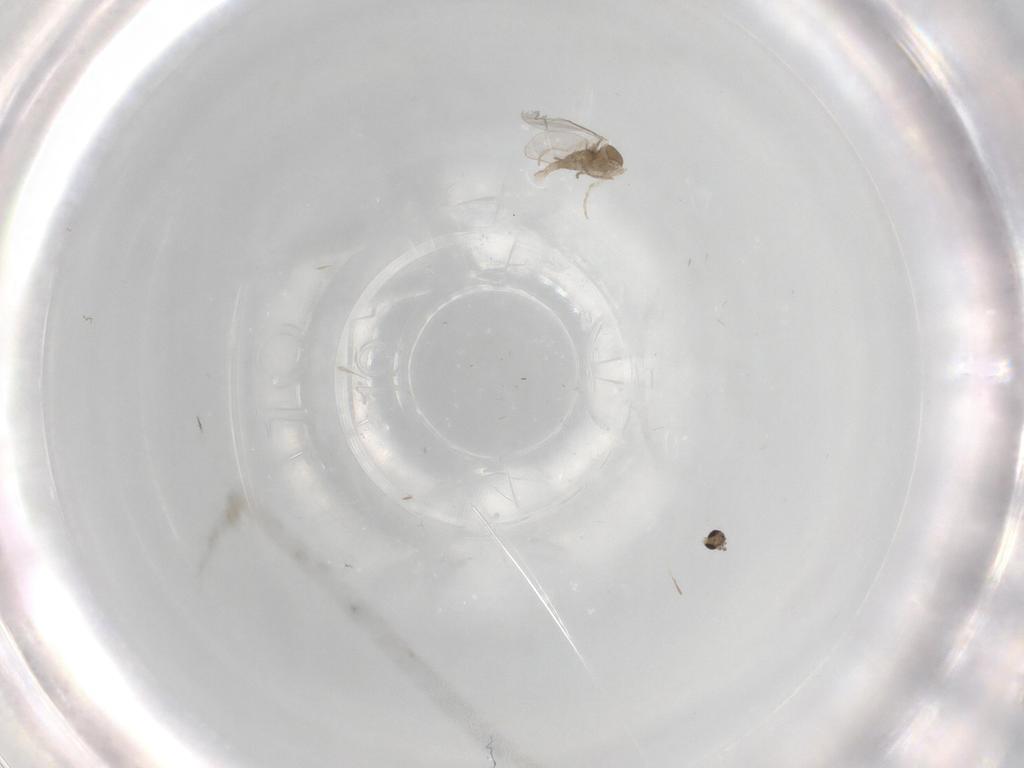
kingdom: Animalia
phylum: Arthropoda
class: Insecta
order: Diptera
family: Cecidomyiidae
